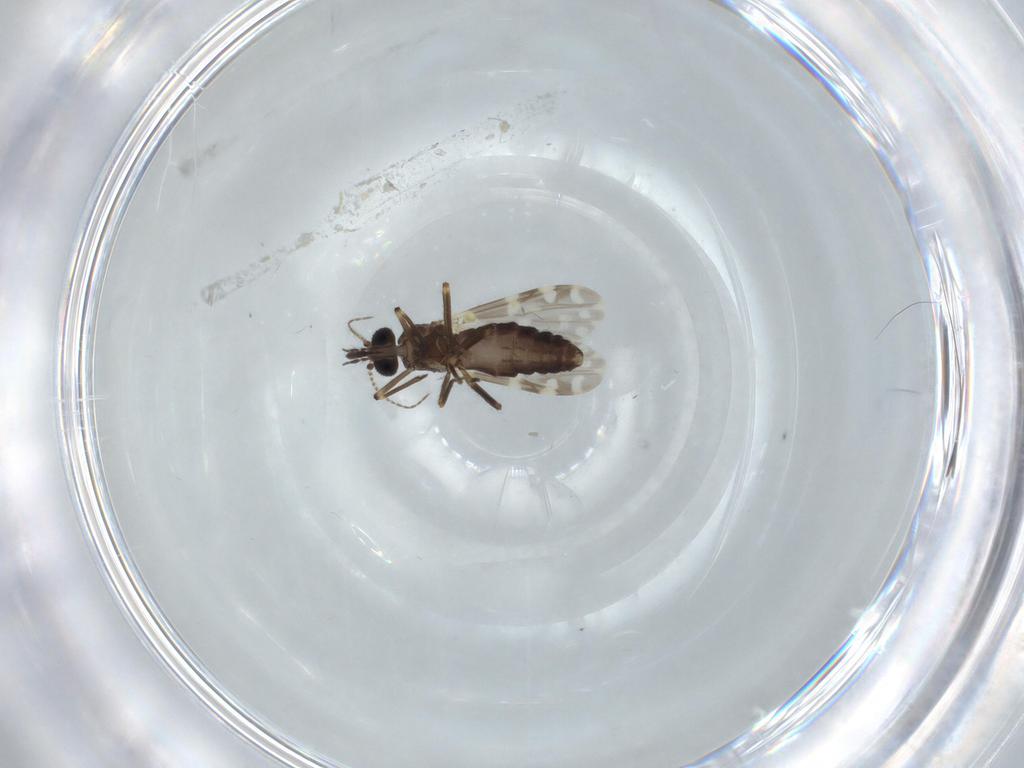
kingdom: Animalia
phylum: Arthropoda
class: Insecta
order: Diptera
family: Ceratopogonidae
